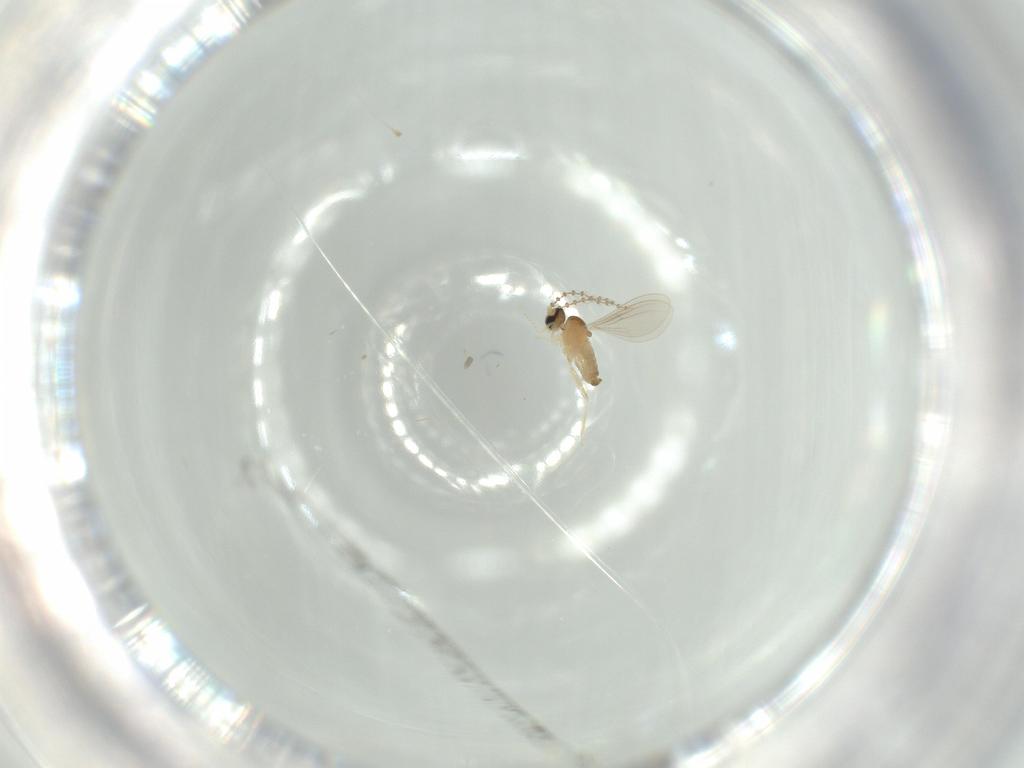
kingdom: Animalia
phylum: Arthropoda
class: Insecta
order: Diptera
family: Cecidomyiidae
